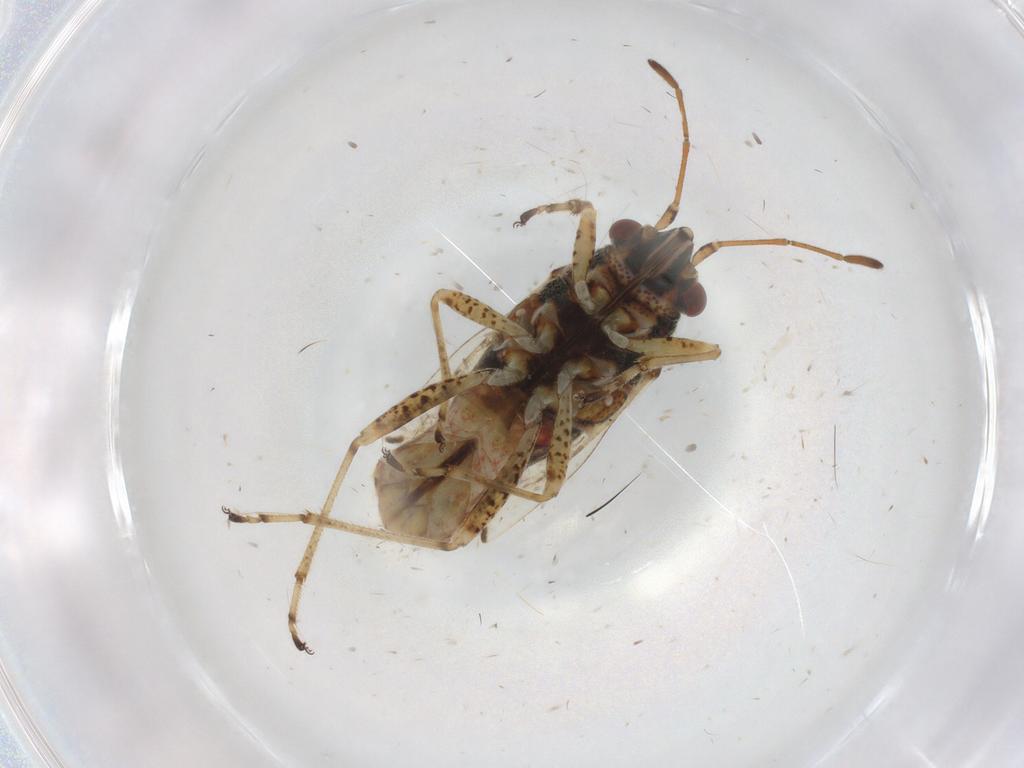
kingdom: Animalia
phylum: Arthropoda
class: Insecta
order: Hemiptera
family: Lygaeidae
